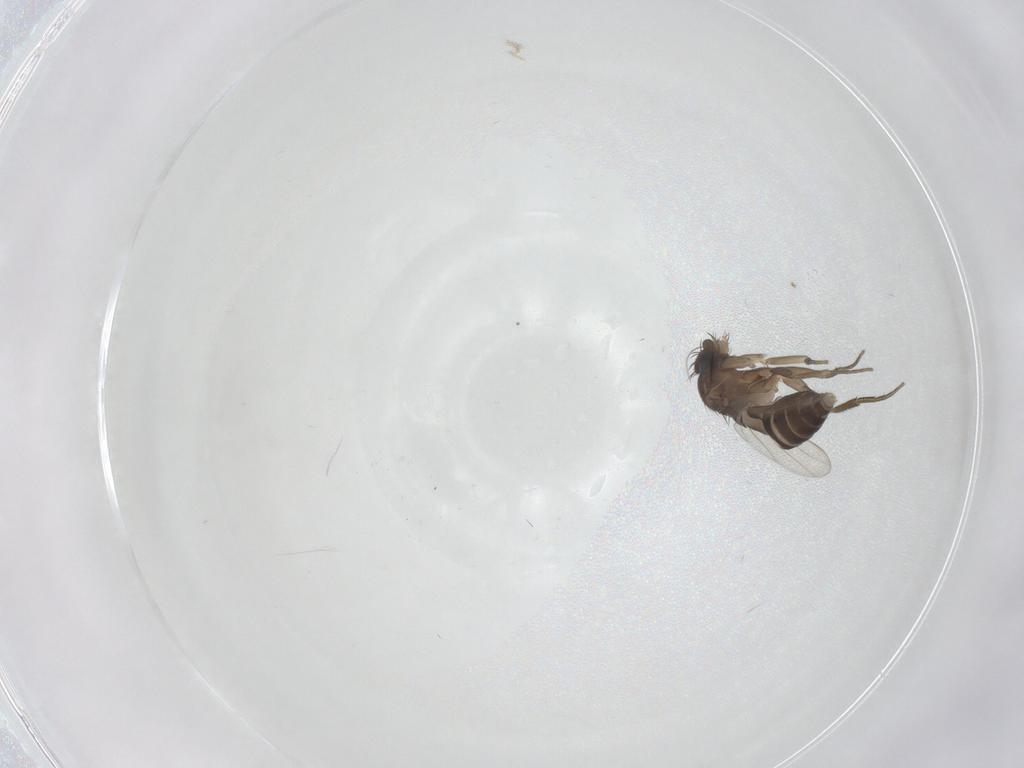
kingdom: Animalia
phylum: Arthropoda
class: Insecta
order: Diptera
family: Phoridae
